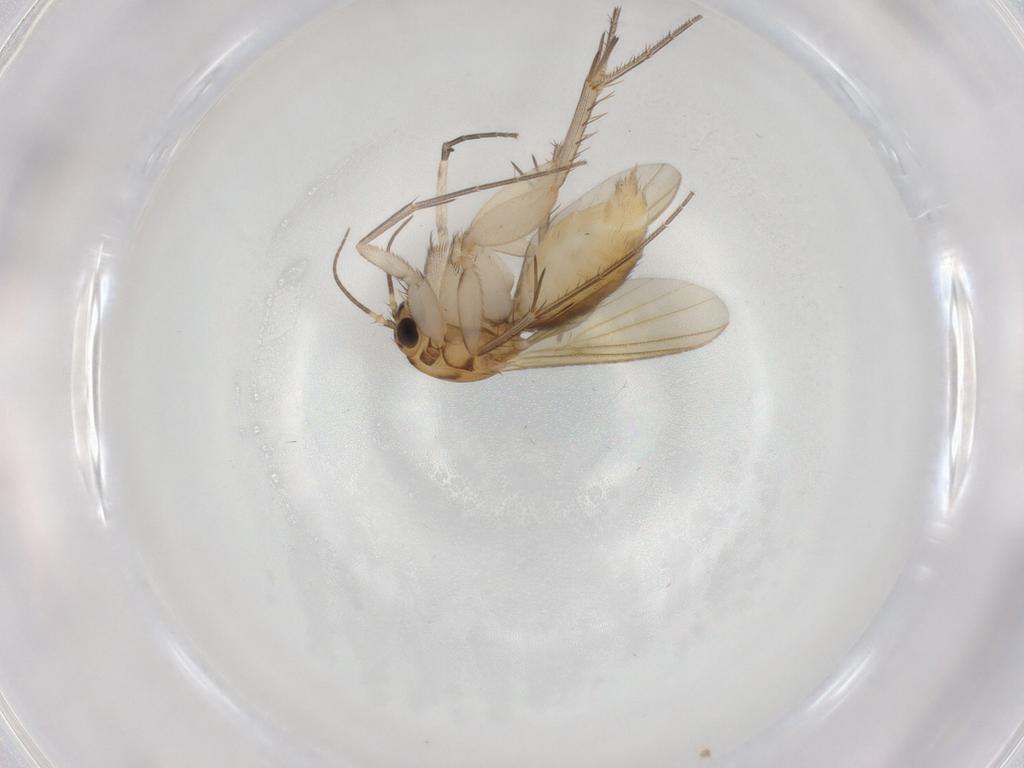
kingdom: Animalia
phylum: Arthropoda
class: Insecta
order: Diptera
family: Mycetophilidae
